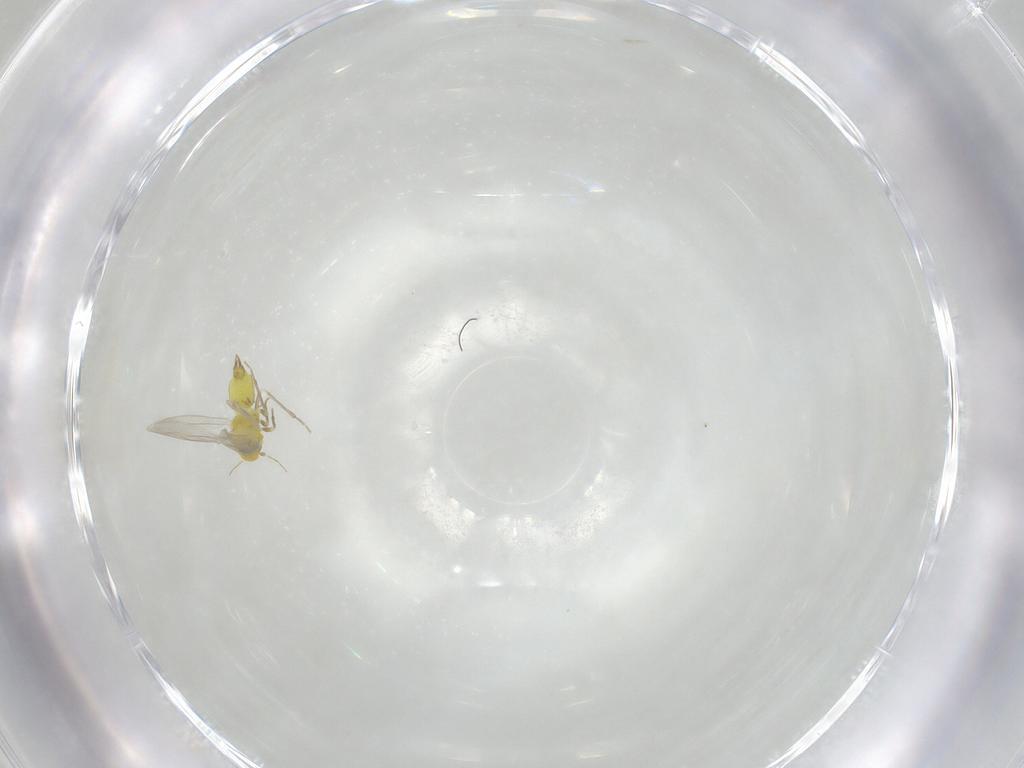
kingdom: Animalia
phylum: Arthropoda
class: Insecta
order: Hemiptera
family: Aleyrodidae
